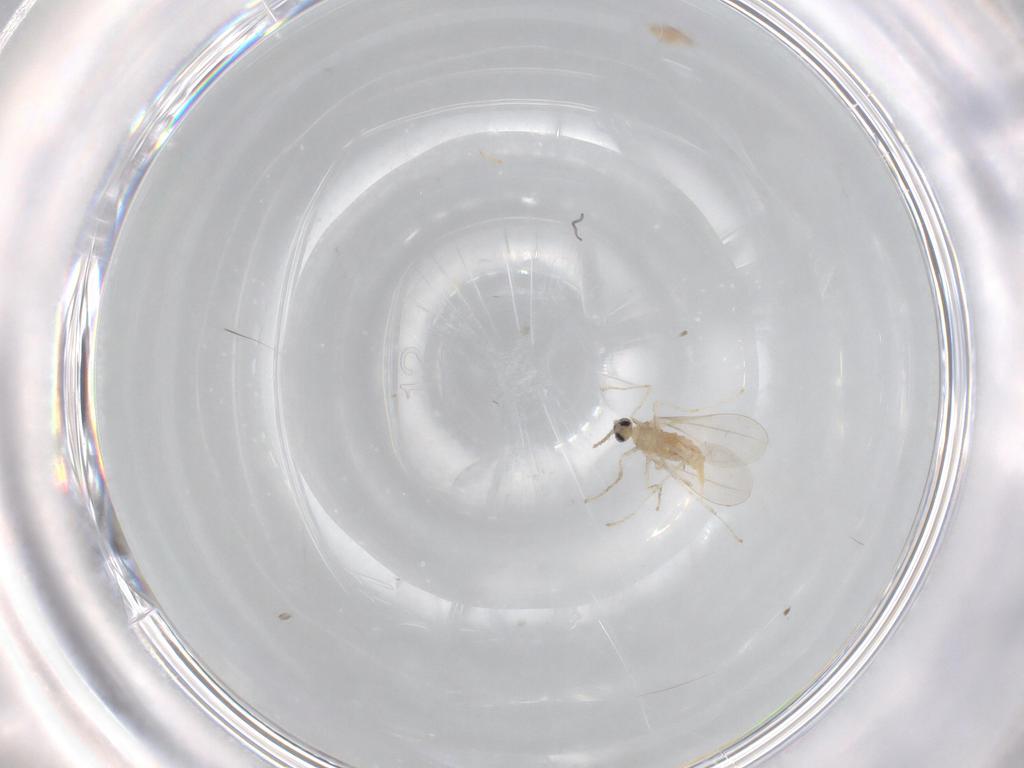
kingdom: Animalia
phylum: Arthropoda
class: Insecta
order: Diptera
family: Cecidomyiidae
